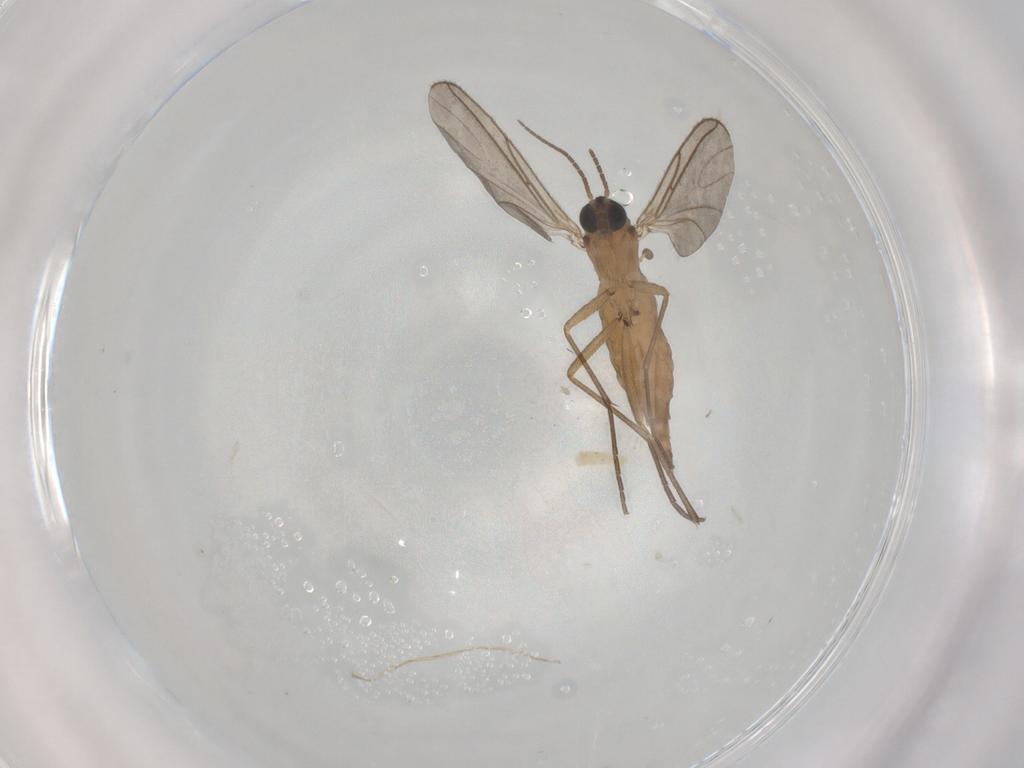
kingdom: Animalia
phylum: Arthropoda
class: Insecta
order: Diptera
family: Sciaridae
